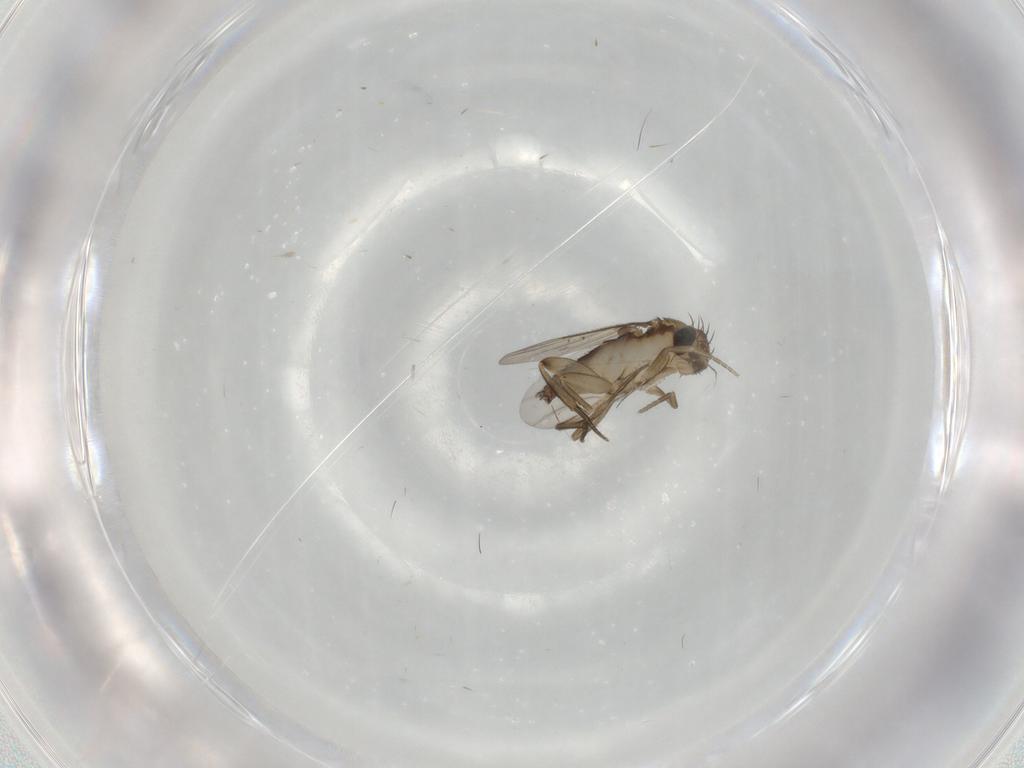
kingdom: Animalia
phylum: Arthropoda
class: Insecta
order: Diptera
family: Phoridae
